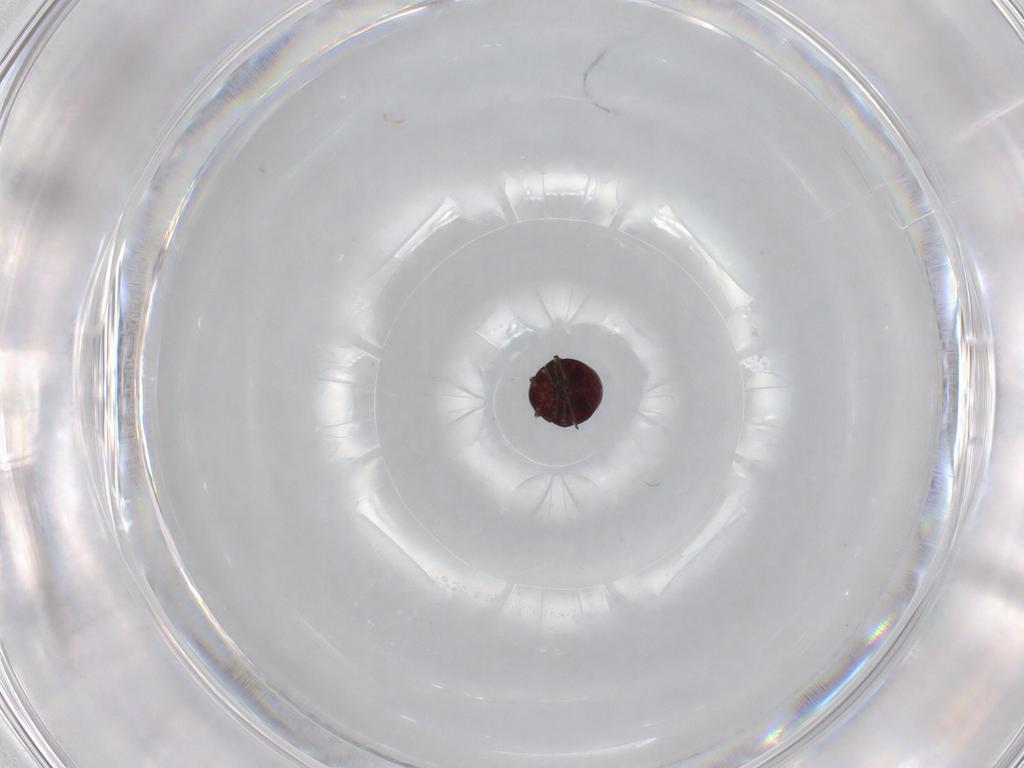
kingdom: Animalia
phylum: Arthropoda
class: Insecta
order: Hemiptera
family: Schizopteridae
